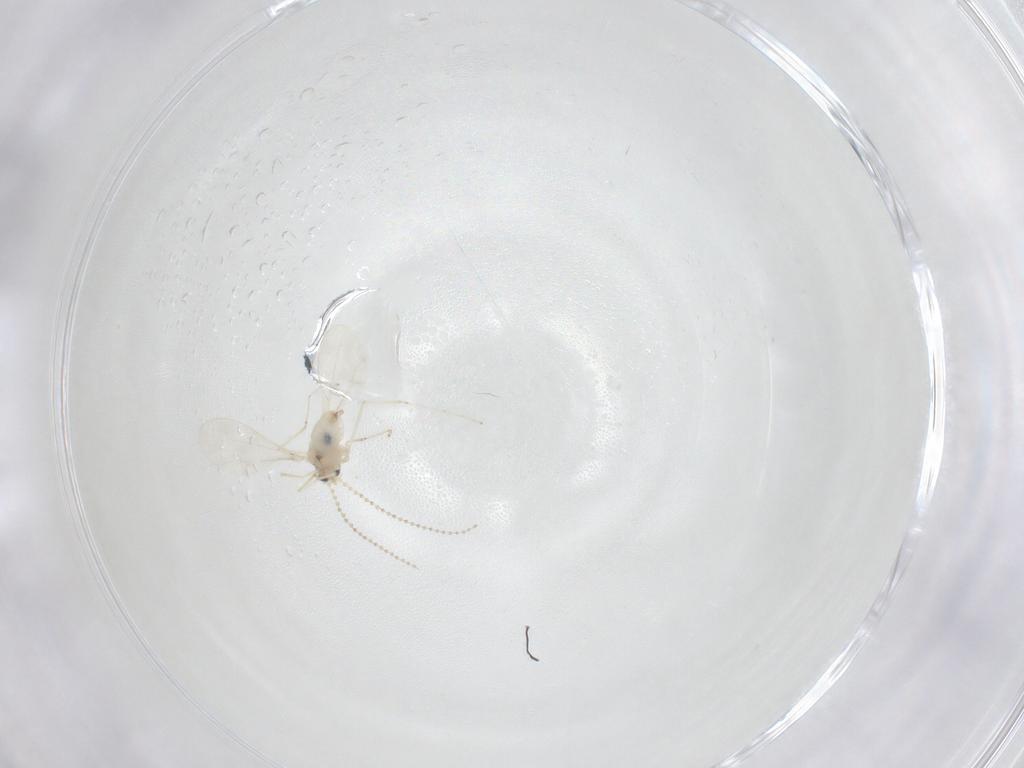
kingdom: Animalia
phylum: Arthropoda
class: Insecta
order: Diptera
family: Cecidomyiidae
